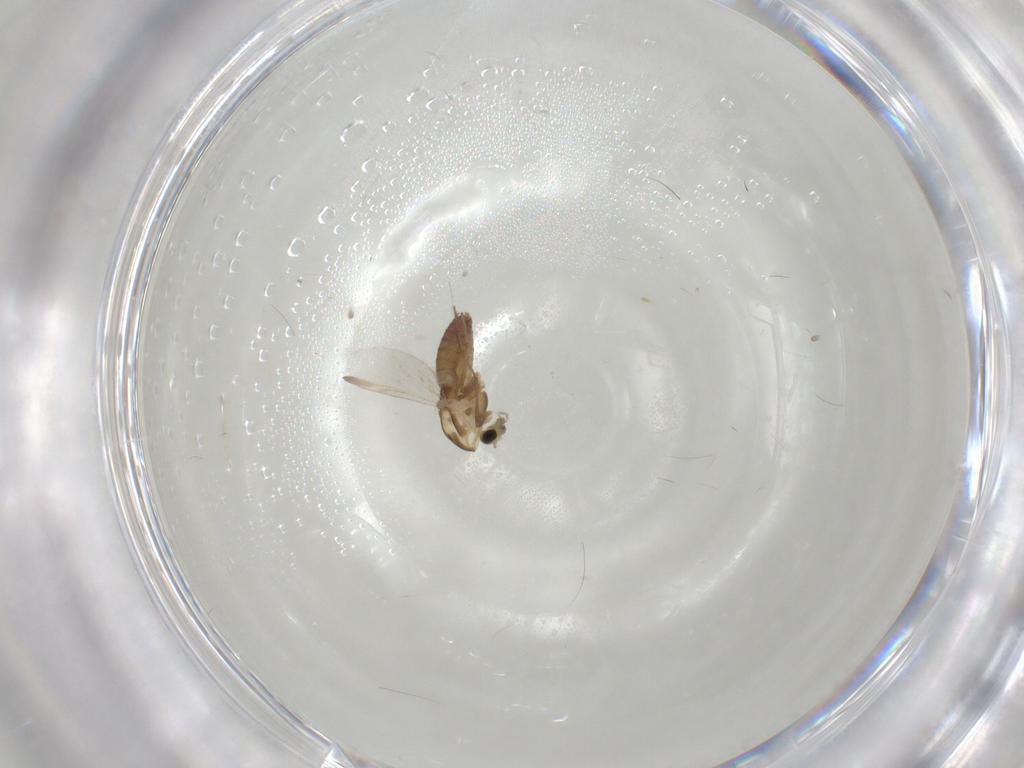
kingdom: Animalia
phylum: Arthropoda
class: Insecta
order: Diptera
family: Chironomidae
